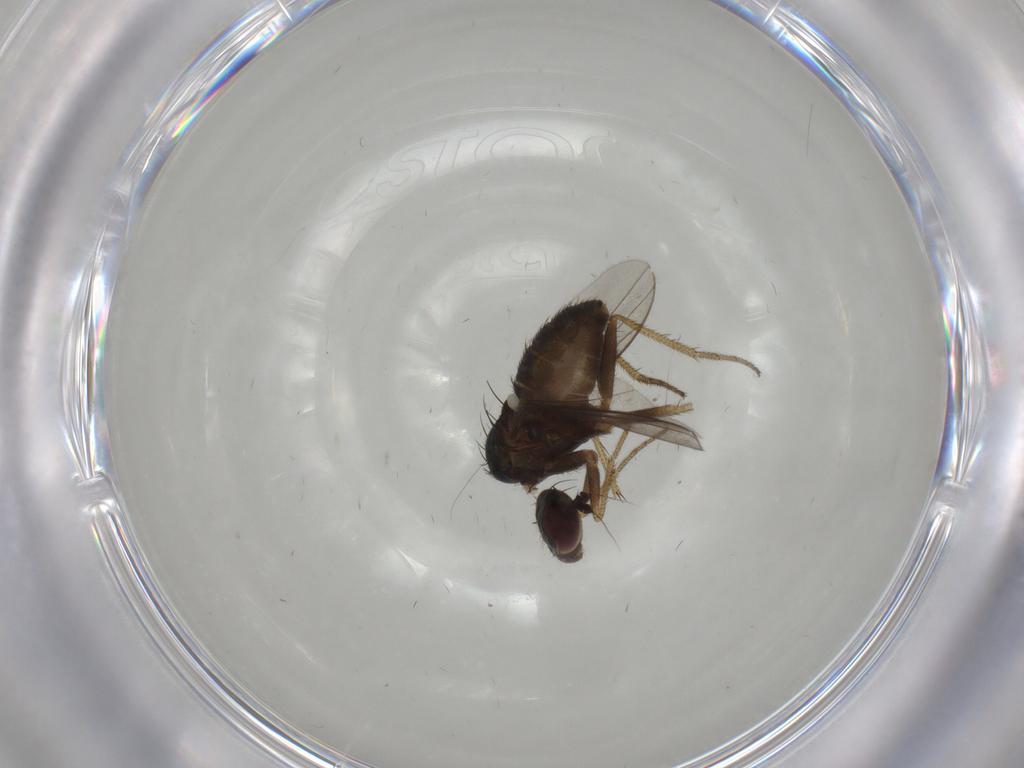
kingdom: Animalia
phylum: Arthropoda
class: Insecta
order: Diptera
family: Dolichopodidae
